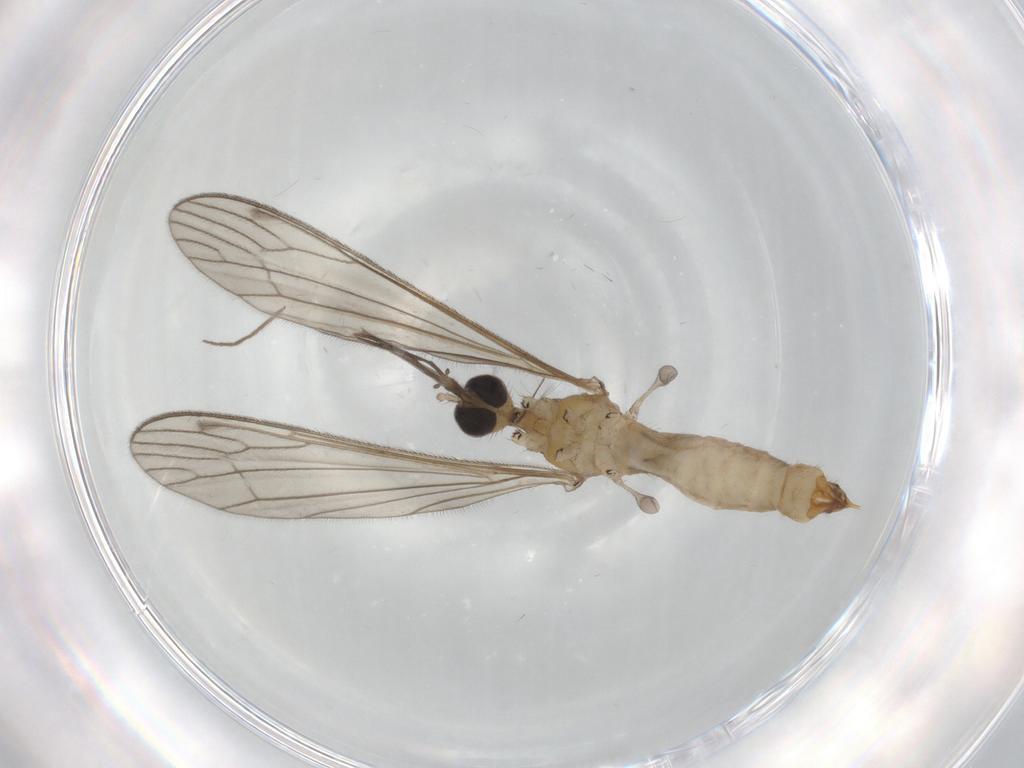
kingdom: Animalia
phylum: Arthropoda
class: Insecta
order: Diptera
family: Limoniidae
